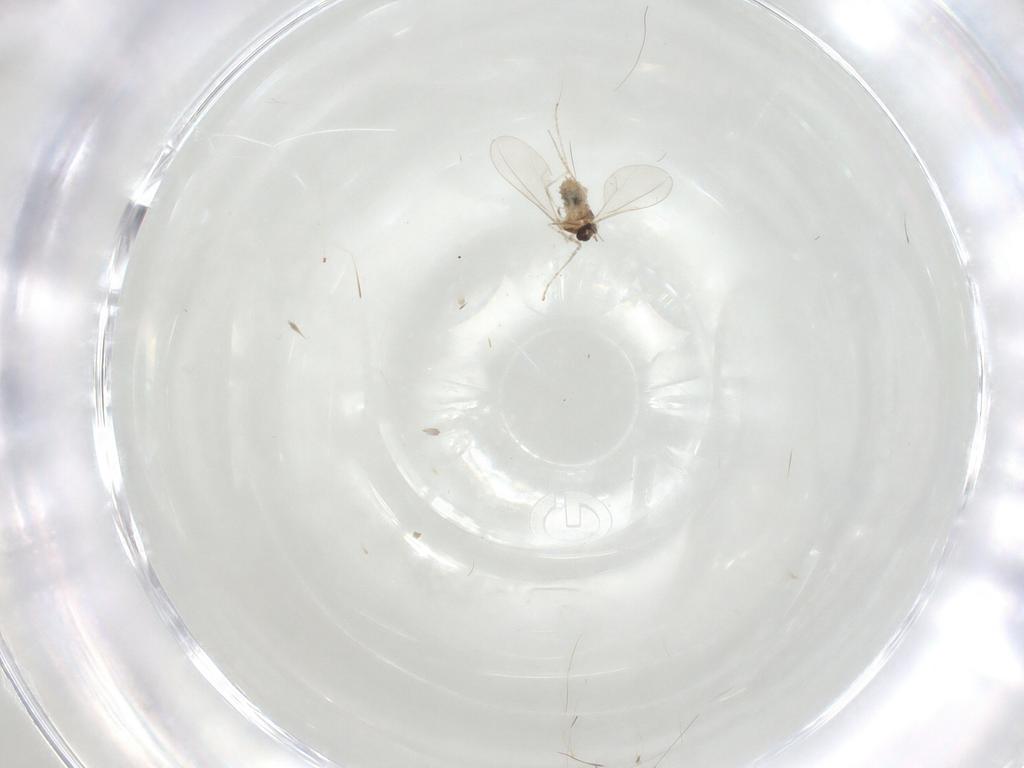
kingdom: Animalia
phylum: Arthropoda
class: Insecta
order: Diptera
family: Cecidomyiidae
